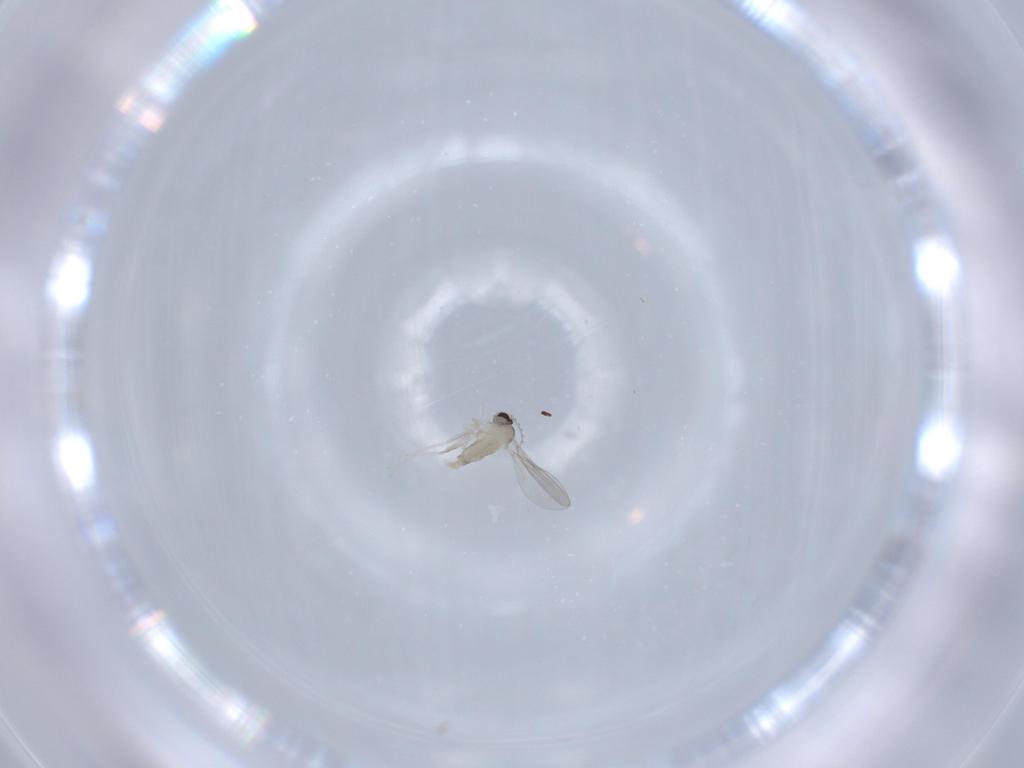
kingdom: Animalia
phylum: Arthropoda
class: Insecta
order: Diptera
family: Cecidomyiidae
